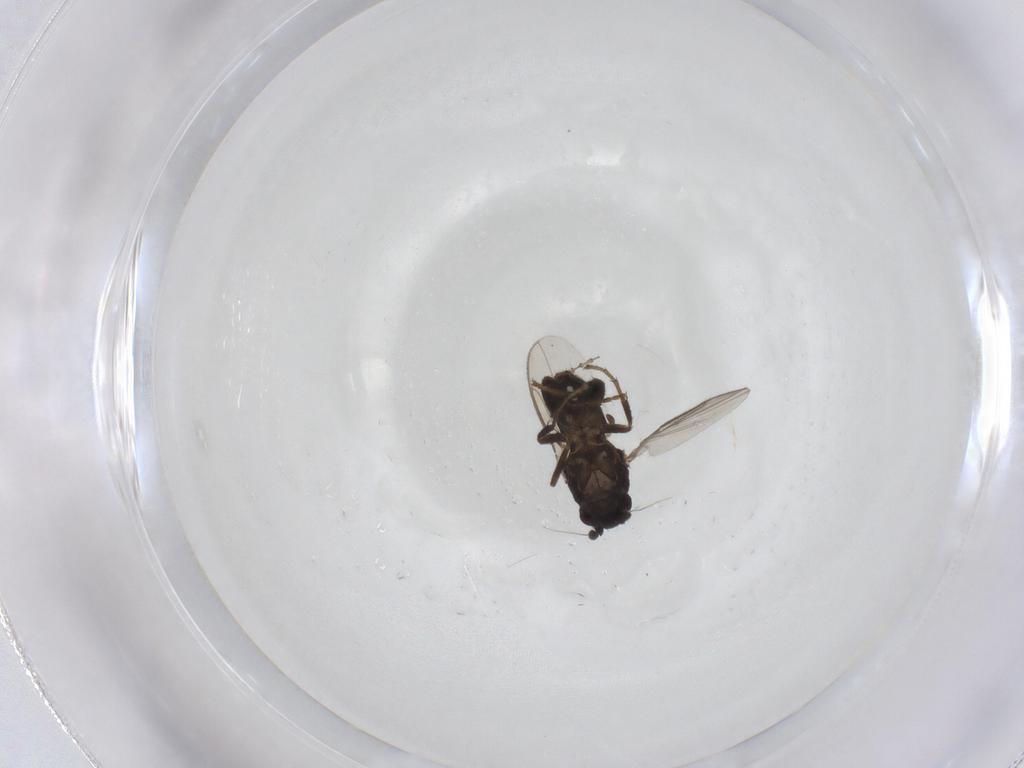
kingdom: Animalia
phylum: Arthropoda
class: Insecta
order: Diptera
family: Cecidomyiidae
